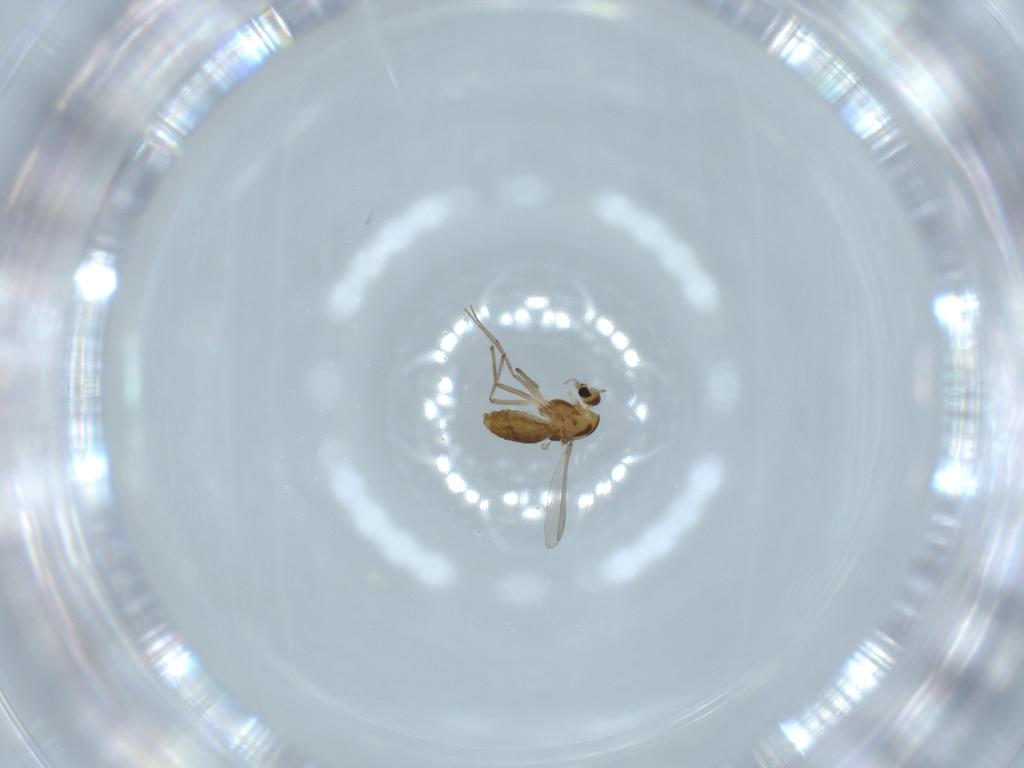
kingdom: Animalia
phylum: Arthropoda
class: Insecta
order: Diptera
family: Chironomidae
